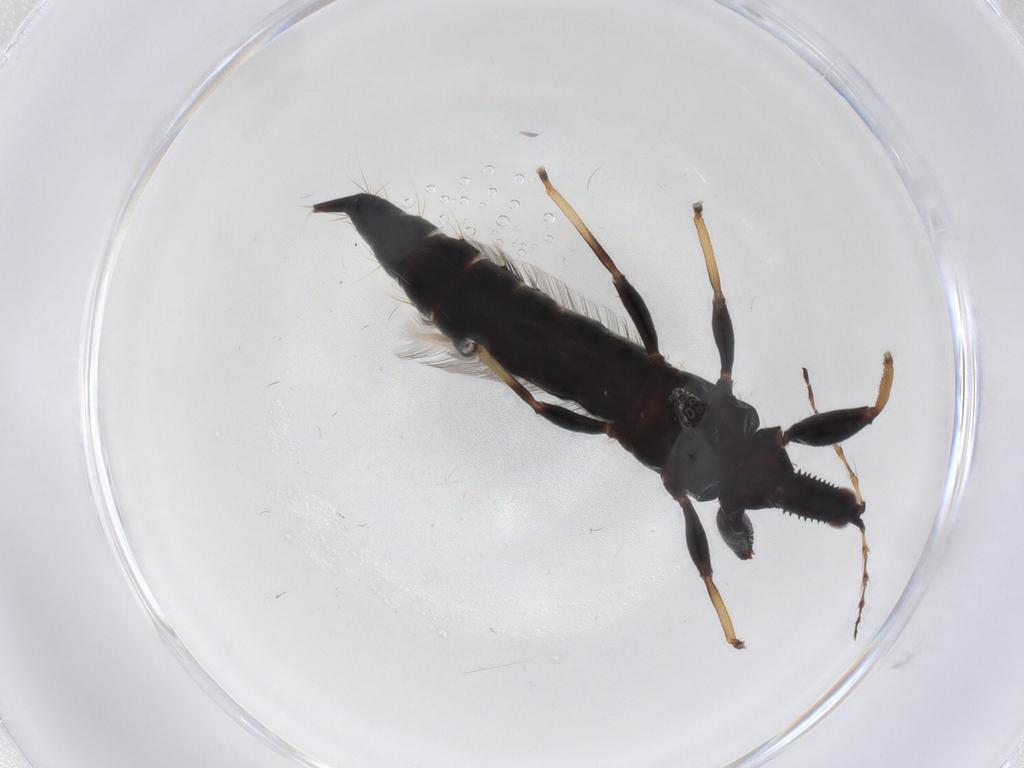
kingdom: Animalia
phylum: Arthropoda
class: Insecta
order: Thysanoptera
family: Phlaeothripidae
